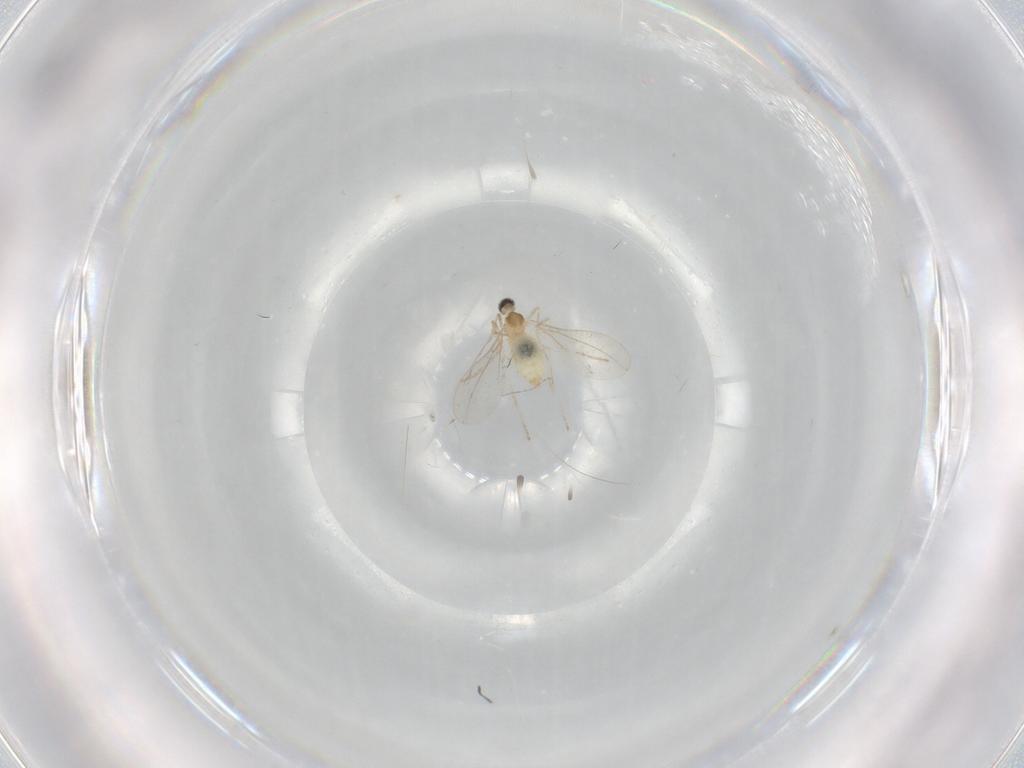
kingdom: Animalia
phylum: Arthropoda
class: Insecta
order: Diptera
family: Cecidomyiidae
